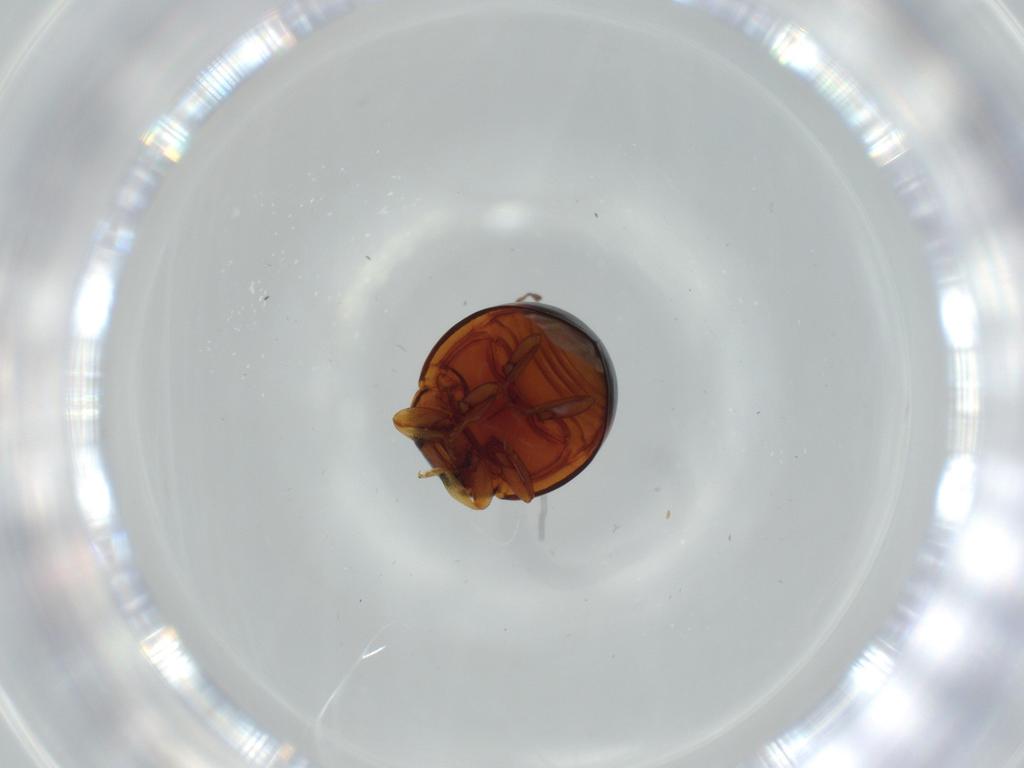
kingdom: Animalia
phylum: Arthropoda
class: Insecta
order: Coleoptera
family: Coccinellidae
